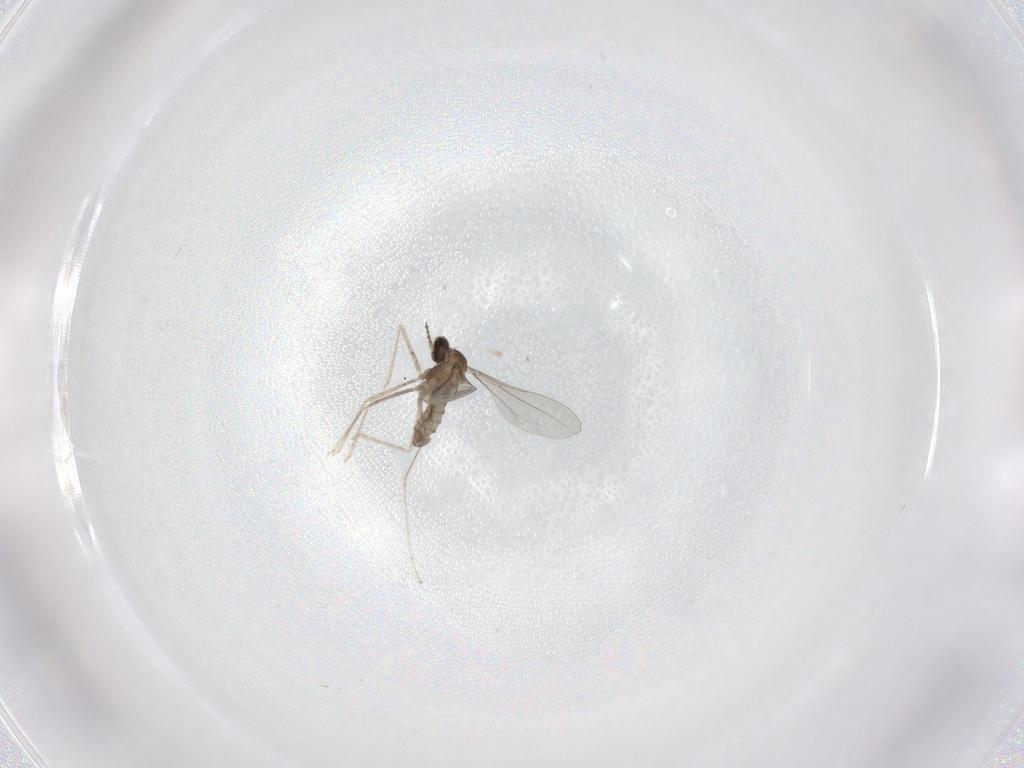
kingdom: Animalia
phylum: Arthropoda
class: Insecta
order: Diptera
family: Phoridae
